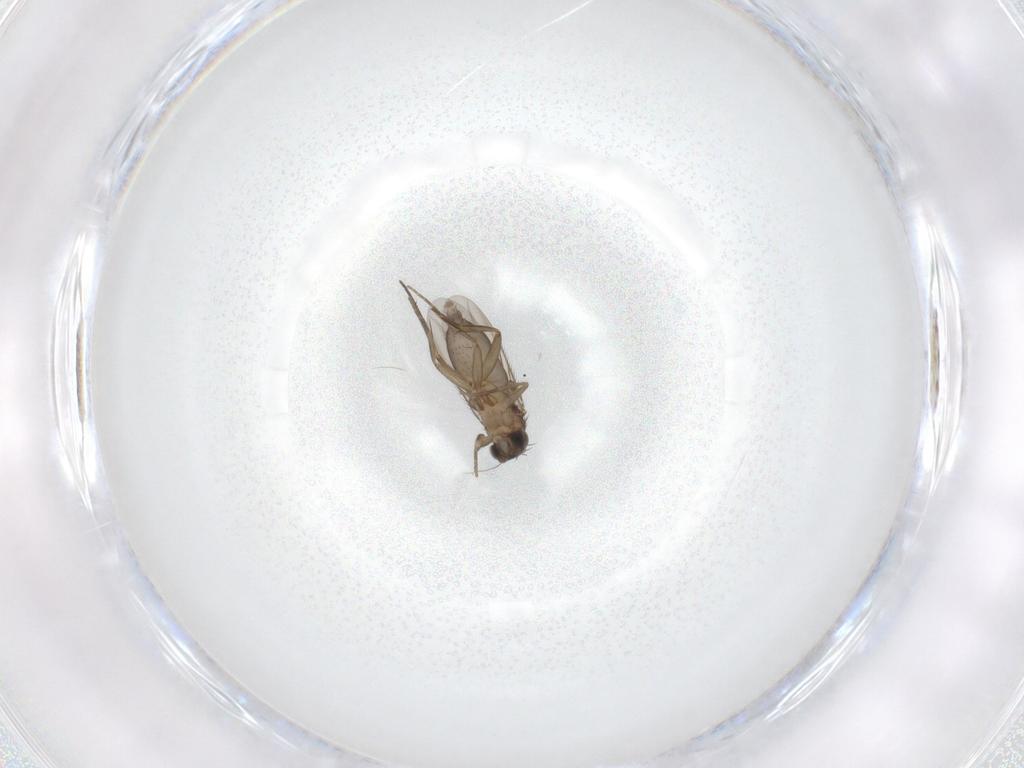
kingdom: Animalia
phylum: Arthropoda
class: Insecta
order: Diptera
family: Phoridae
